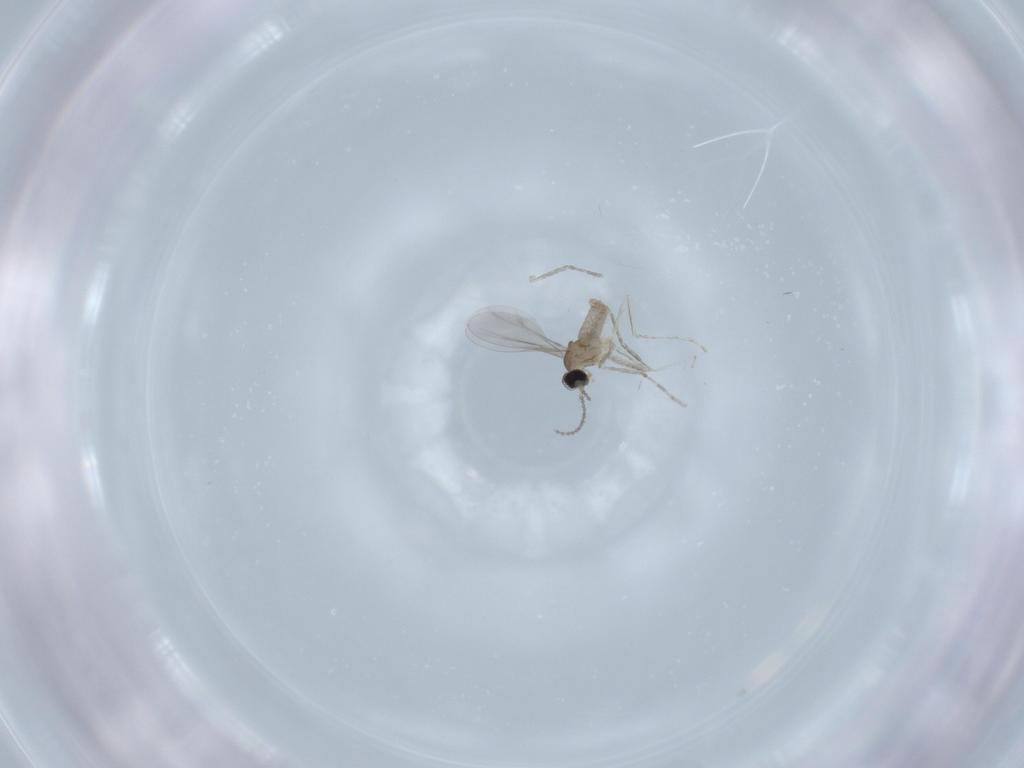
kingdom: Animalia
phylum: Arthropoda
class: Insecta
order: Diptera
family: Cecidomyiidae
